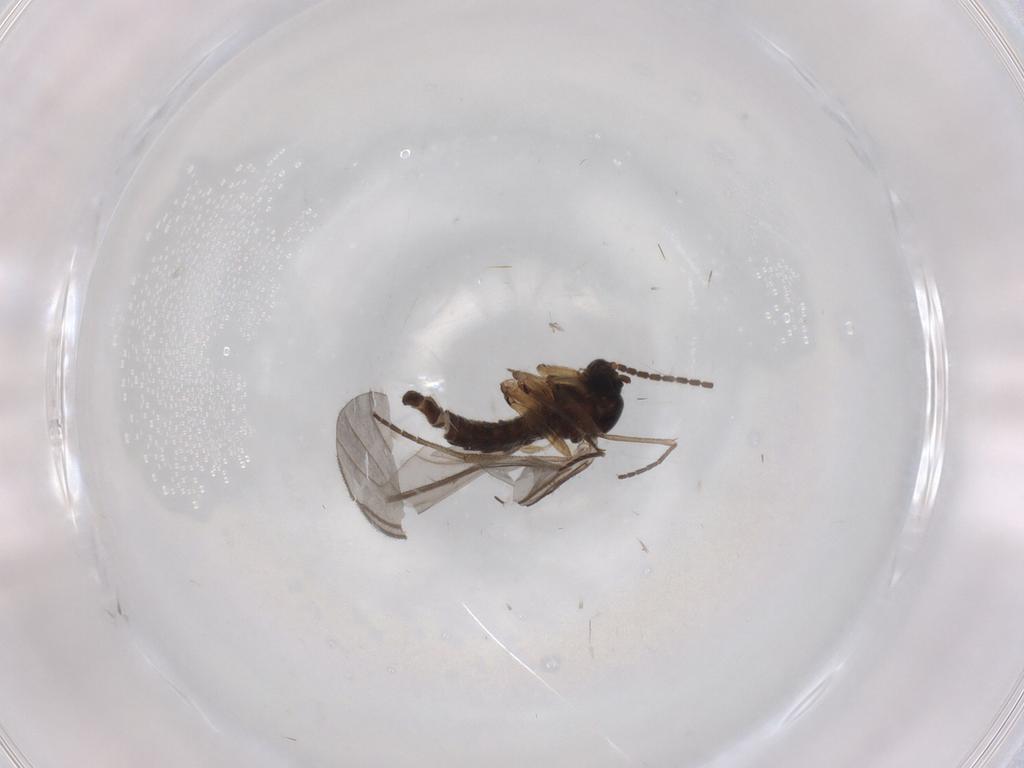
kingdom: Animalia
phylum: Arthropoda
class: Insecta
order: Diptera
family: Sciaridae
